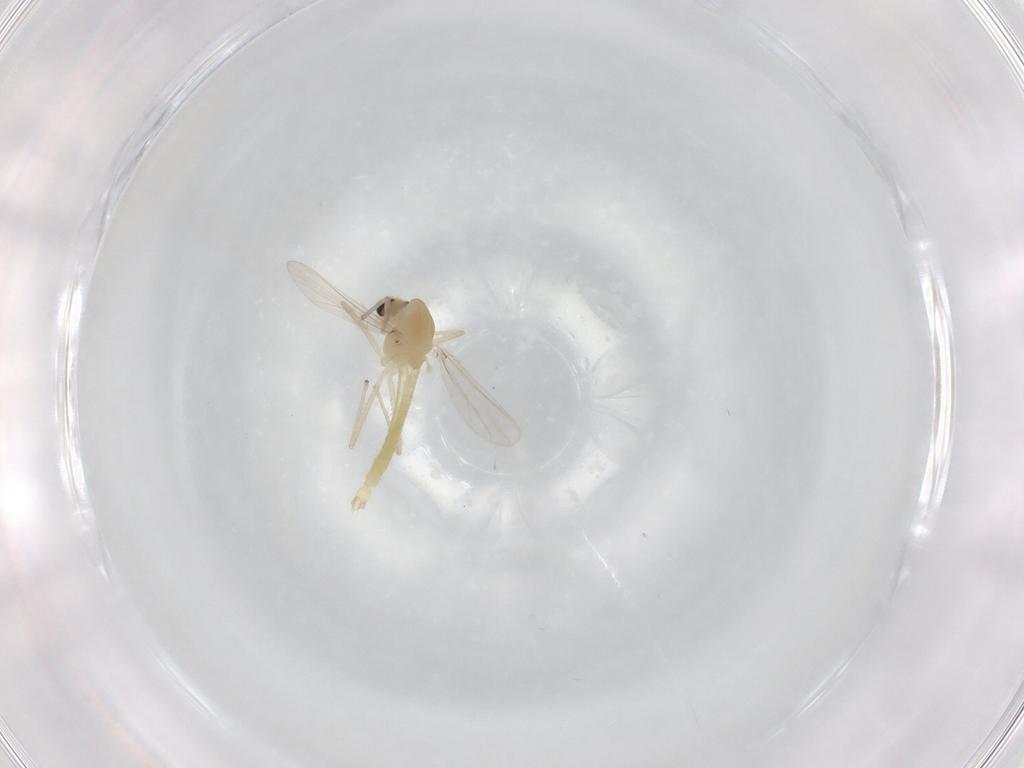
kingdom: Animalia
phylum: Arthropoda
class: Insecta
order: Diptera
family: Chironomidae
